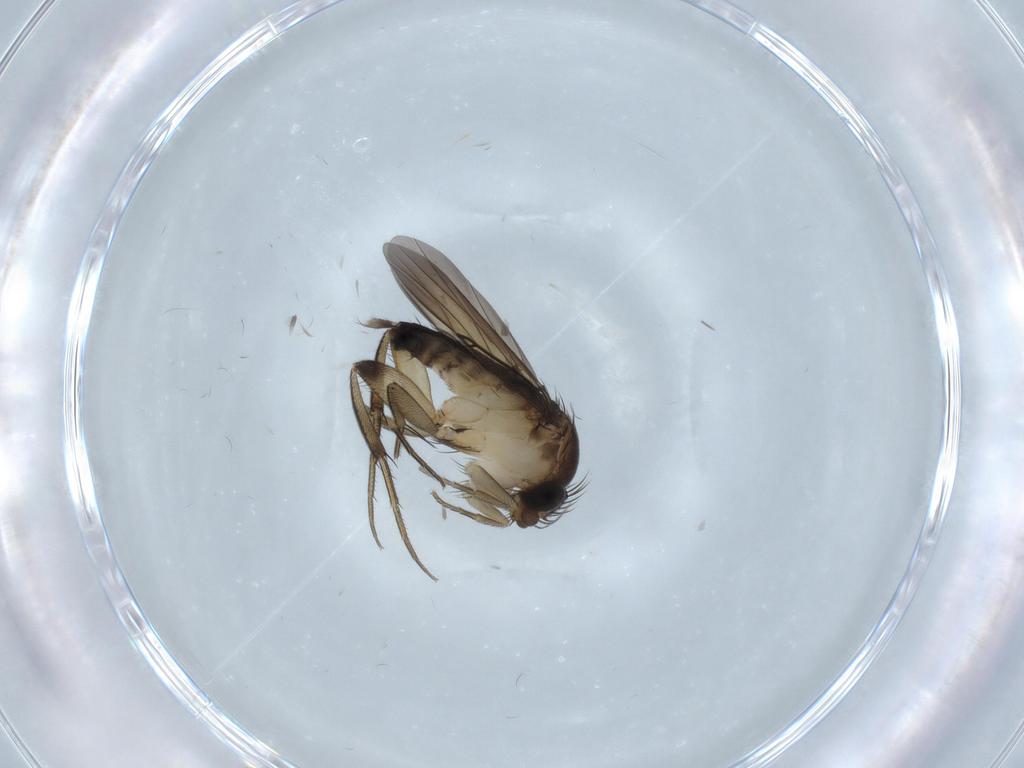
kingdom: Animalia
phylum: Arthropoda
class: Insecta
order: Diptera
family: Phoridae
